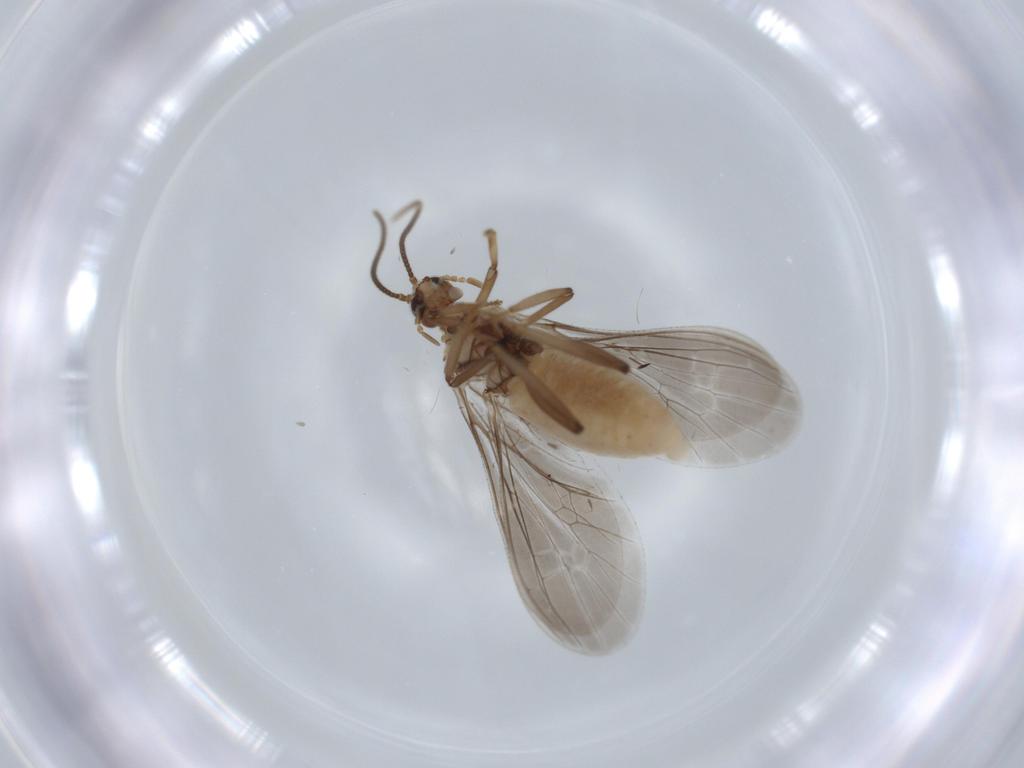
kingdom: Animalia
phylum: Arthropoda
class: Insecta
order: Neuroptera
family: Coniopterygidae
